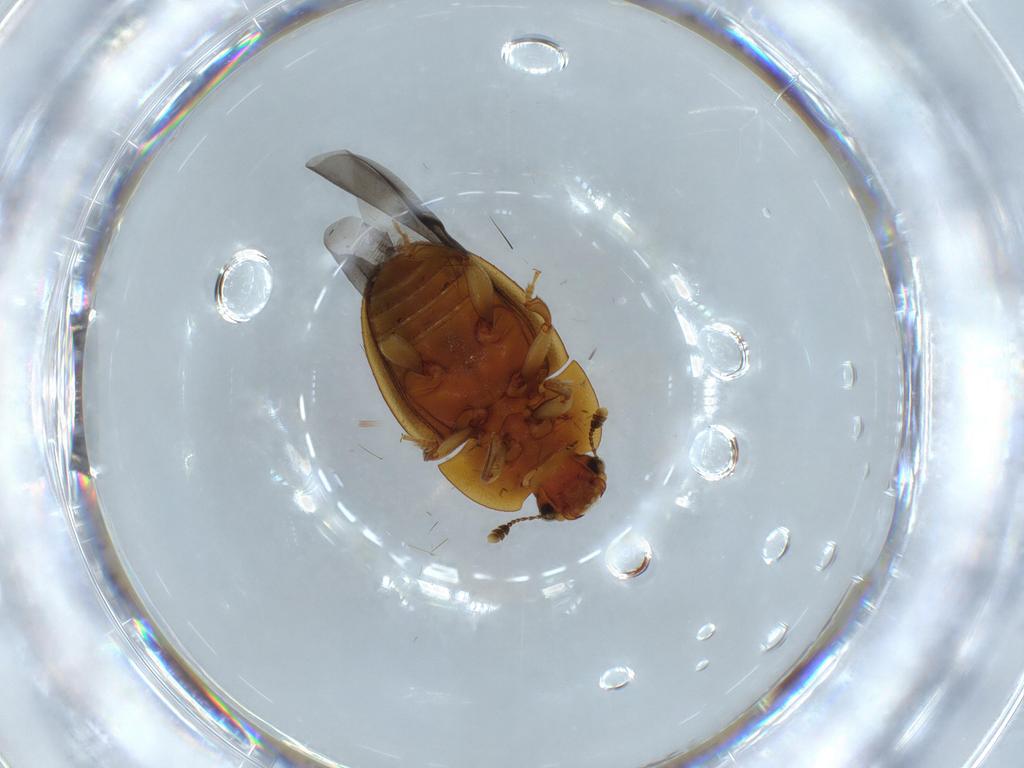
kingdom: Animalia
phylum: Arthropoda
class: Insecta
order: Coleoptera
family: Nitidulidae
